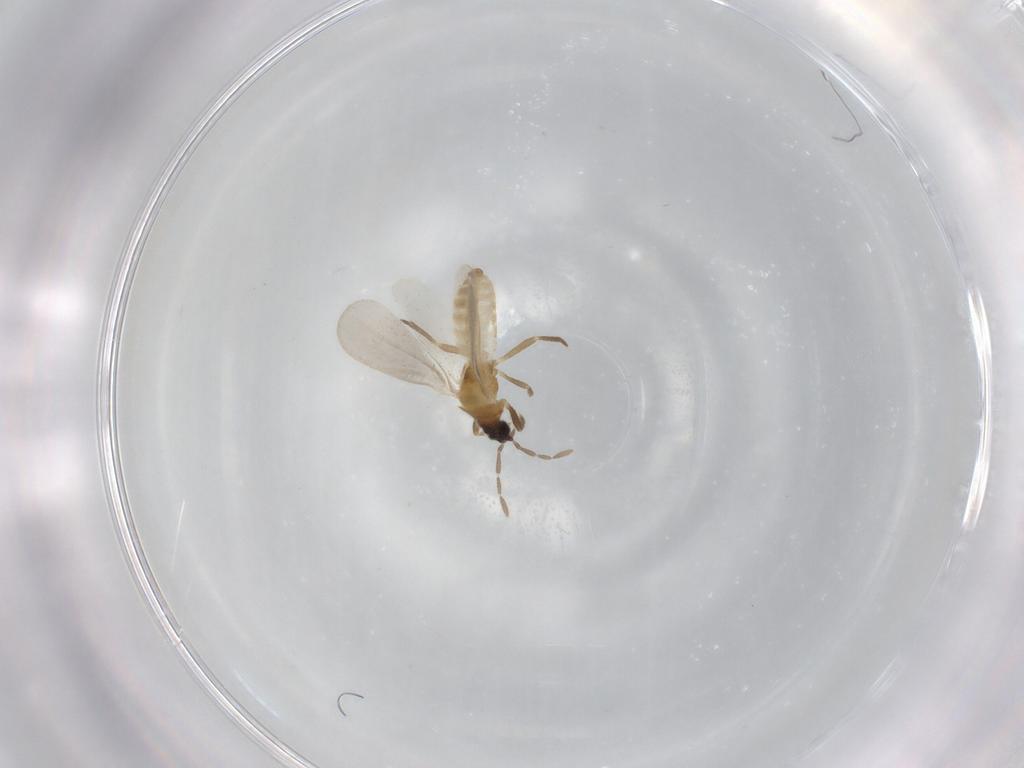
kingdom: Animalia
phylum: Arthropoda
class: Insecta
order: Hemiptera
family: Enicocephalidae
